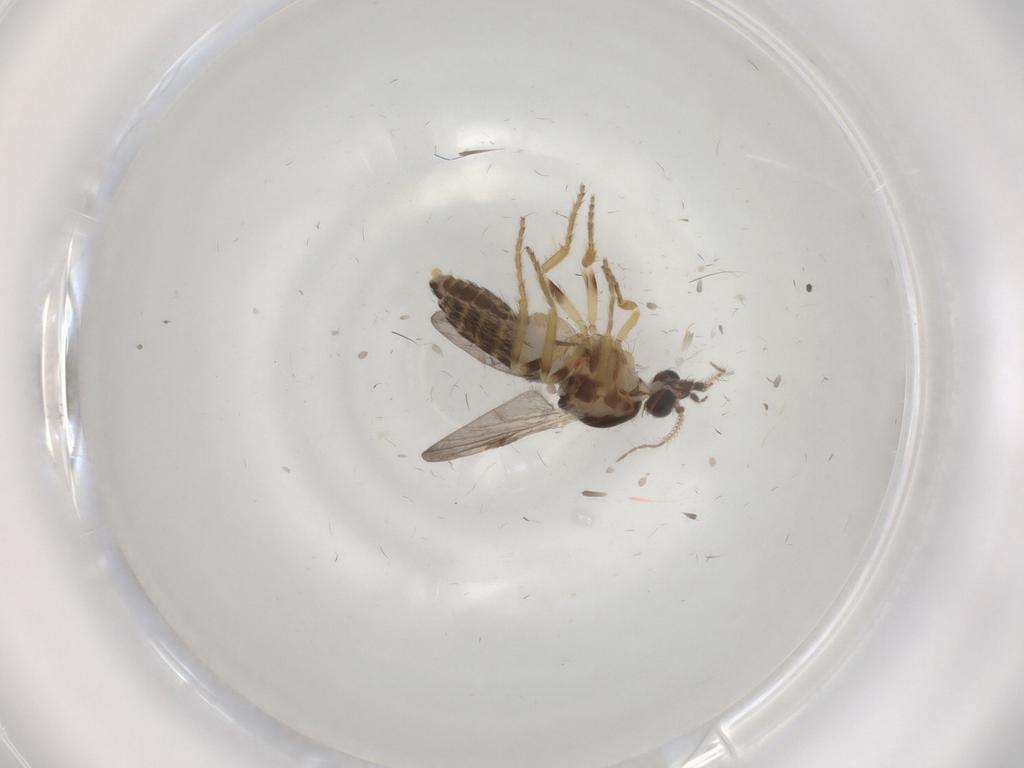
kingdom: Animalia
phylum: Arthropoda
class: Insecta
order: Diptera
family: Ceratopogonidae
